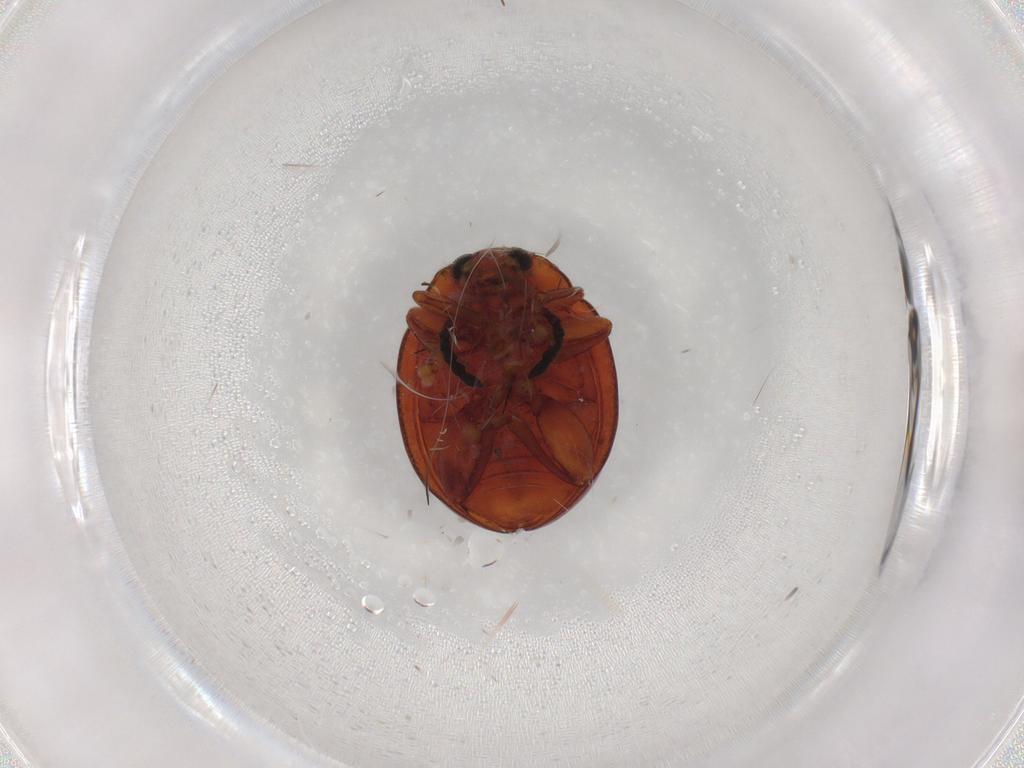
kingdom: Animalia
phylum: Arthropoda
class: Insecta
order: Coleoptera
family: Chrysomelidae
